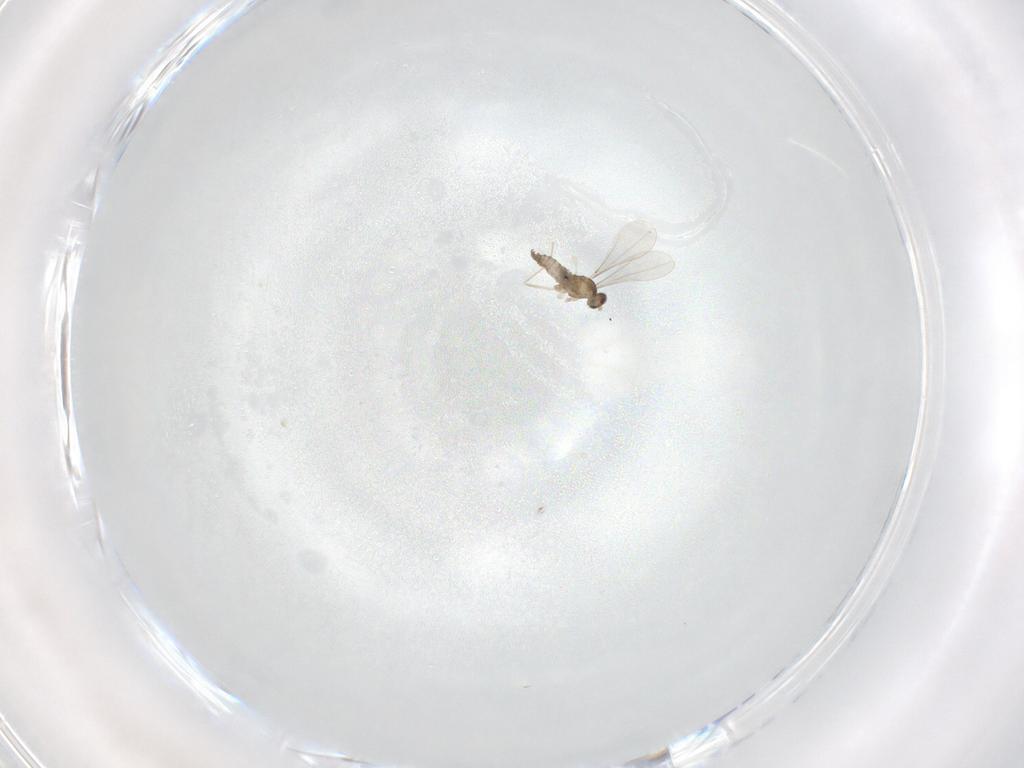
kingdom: Animalia
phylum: Arthropoda
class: Insecta
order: Diptera
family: Cecidomyiidae
